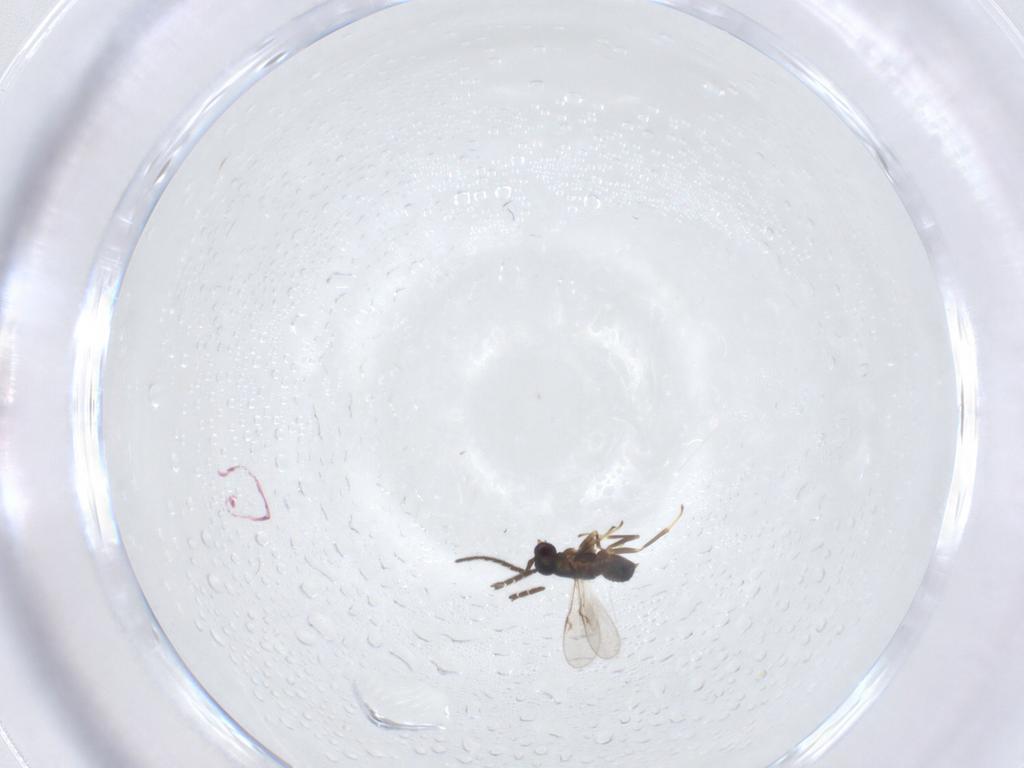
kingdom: Animalia
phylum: Arthropoda
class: Insecta
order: Hymenoptera
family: Encyrtidae
